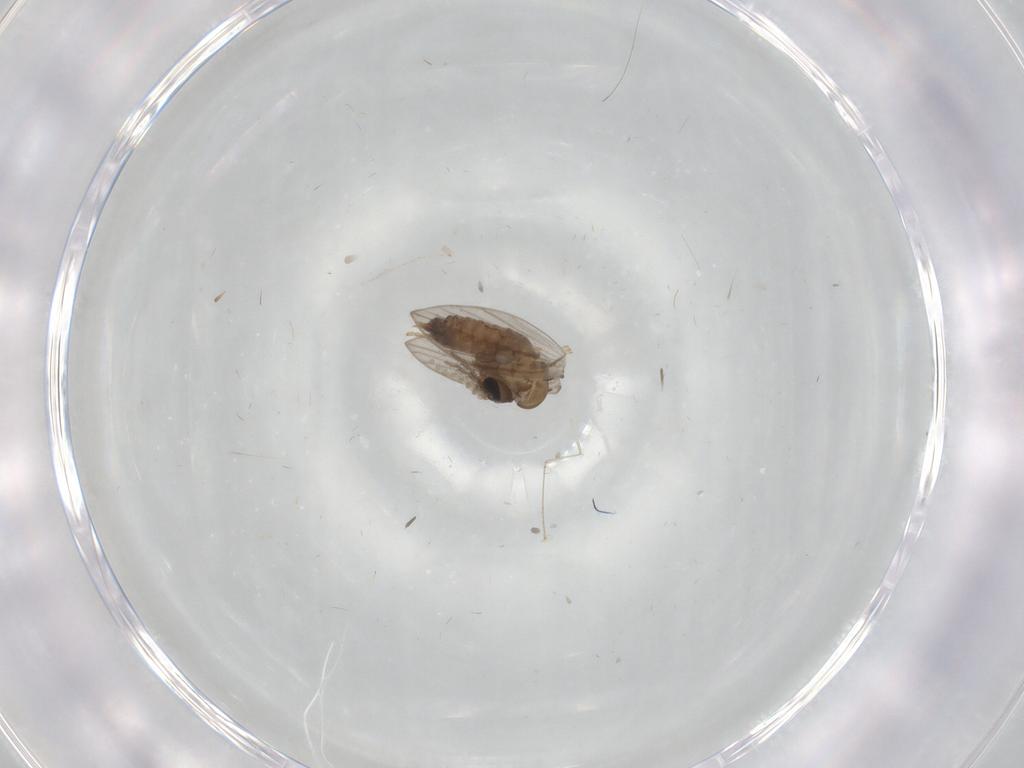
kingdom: Animalia
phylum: Arthropoda
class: Insecta
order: Diptera
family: Psychodidae
